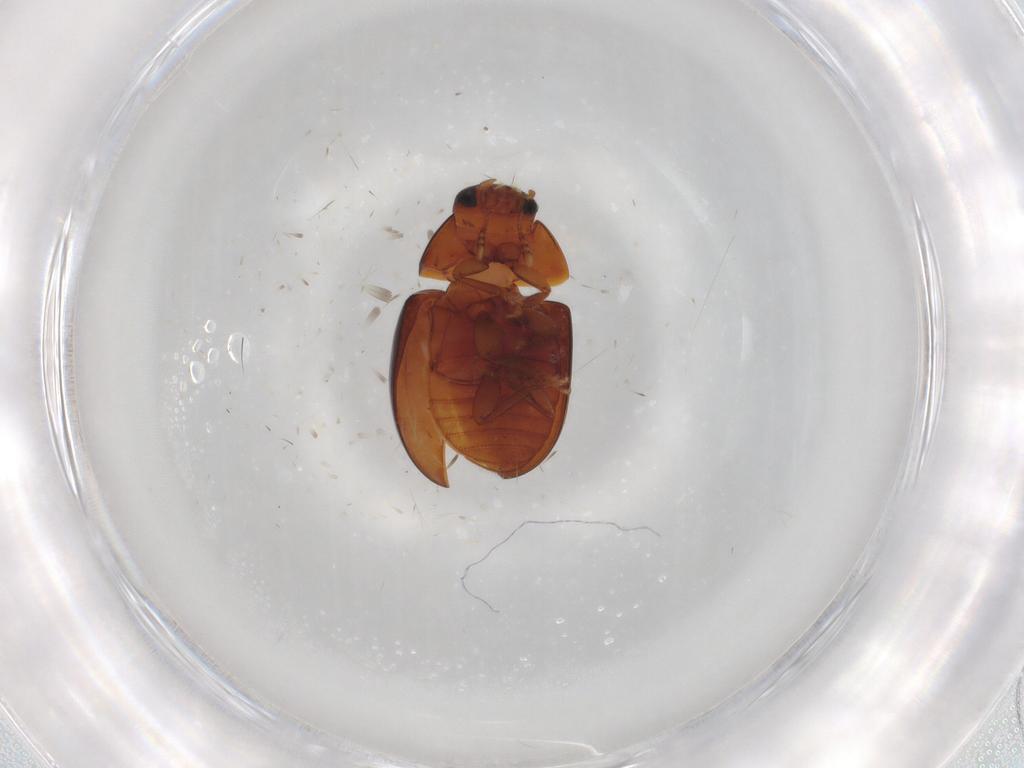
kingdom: Animalia
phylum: Arthropoda
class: Insecta
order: Coleoptera
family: Phalacridae
